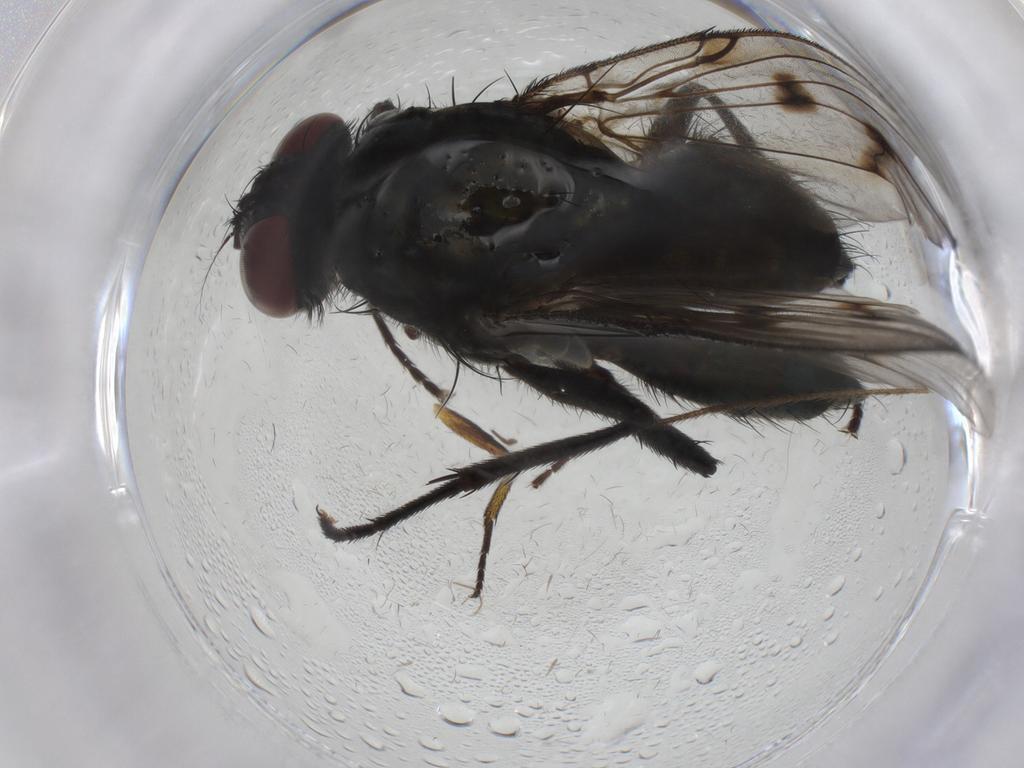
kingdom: Animalia
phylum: Arthropoda
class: Insecta
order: Diptera
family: Muscidae
